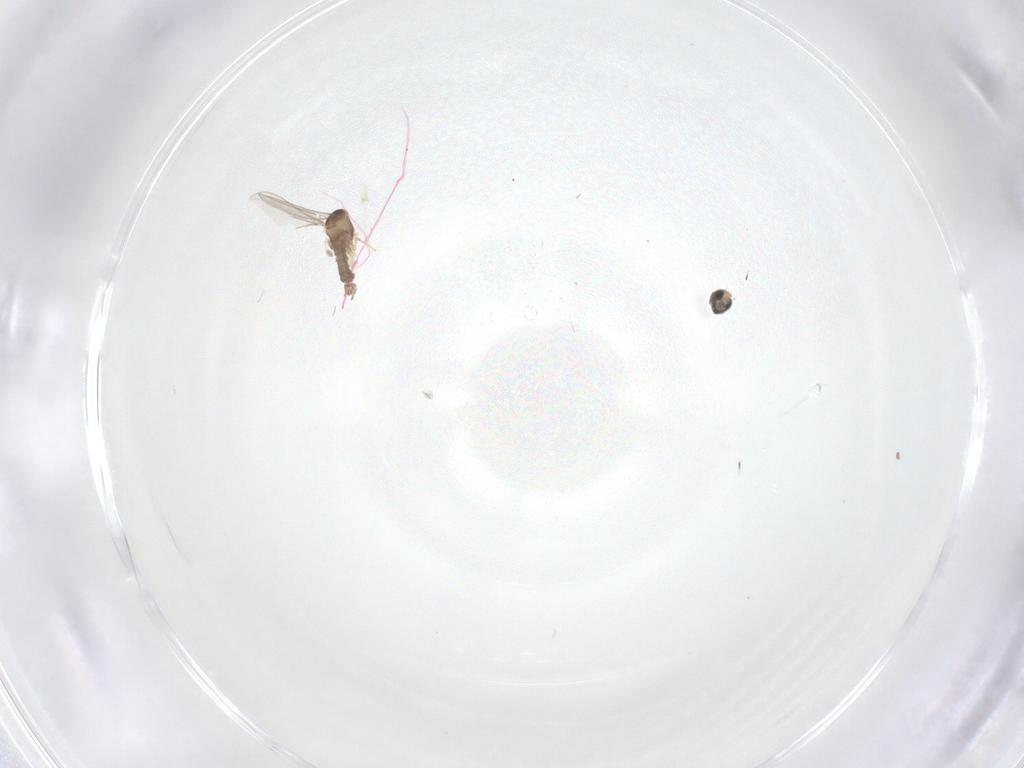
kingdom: Animalia
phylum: Arthropoda
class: Insecta
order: Diptera
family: Cecidomyiidae
